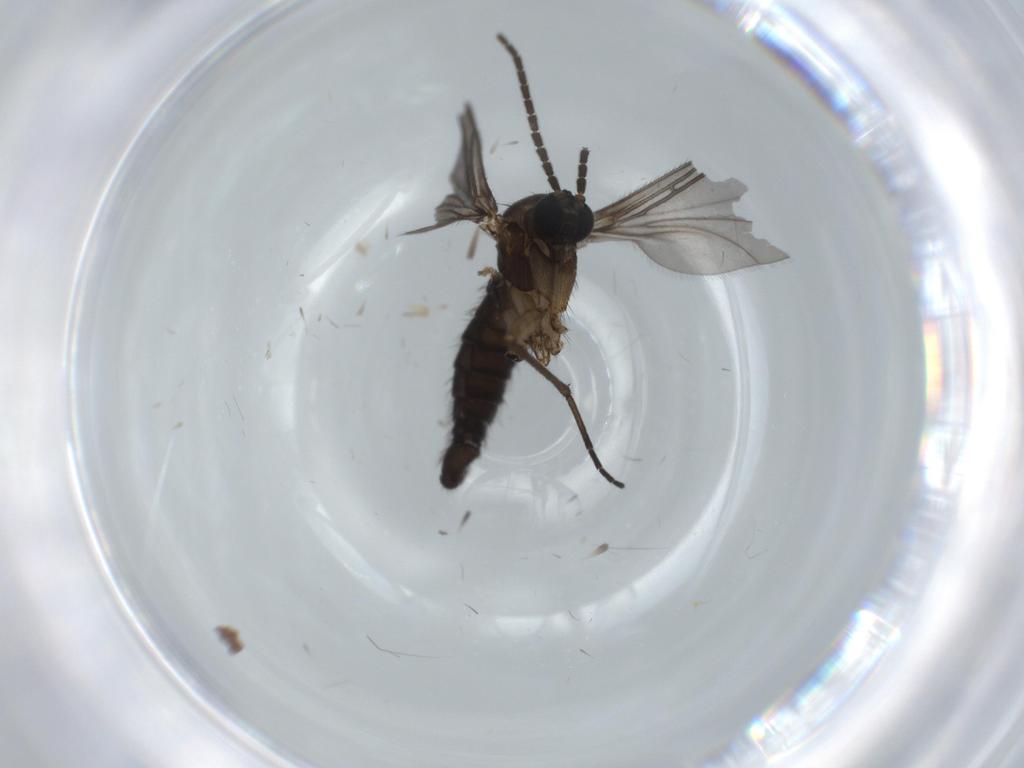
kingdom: Animalia
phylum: Arthropoda
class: Insecta
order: Diptera
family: Sciaridae
